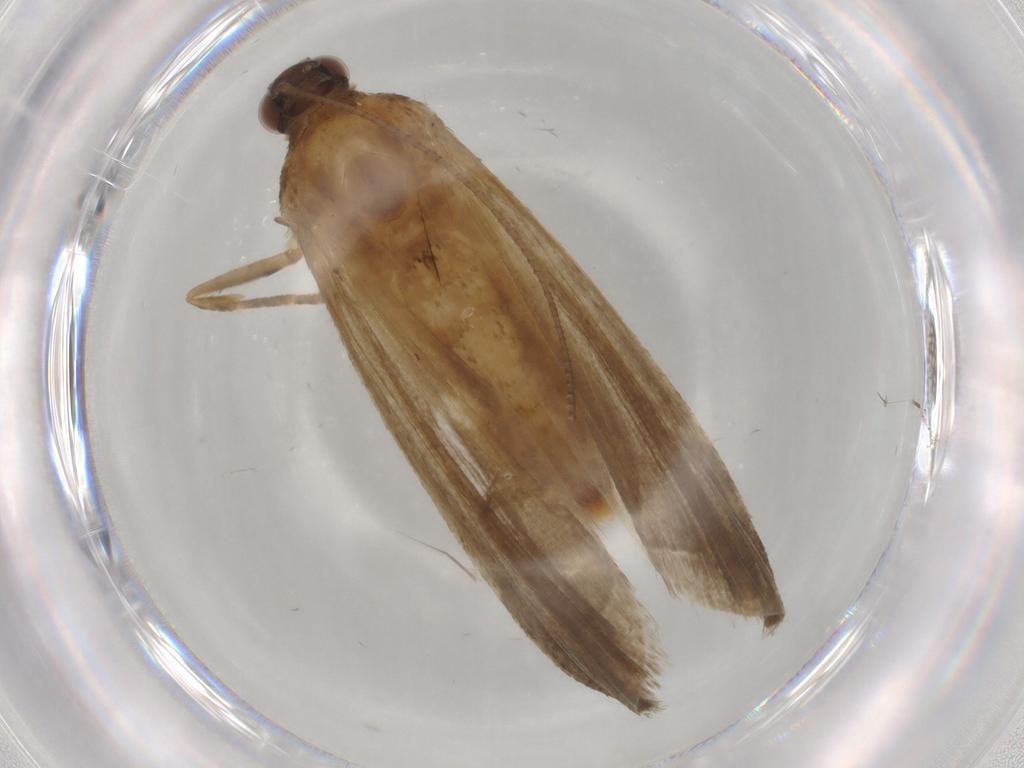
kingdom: Animalia
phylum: Arthropoda
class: Insecta
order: Lepidoptera
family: Noctuidae
